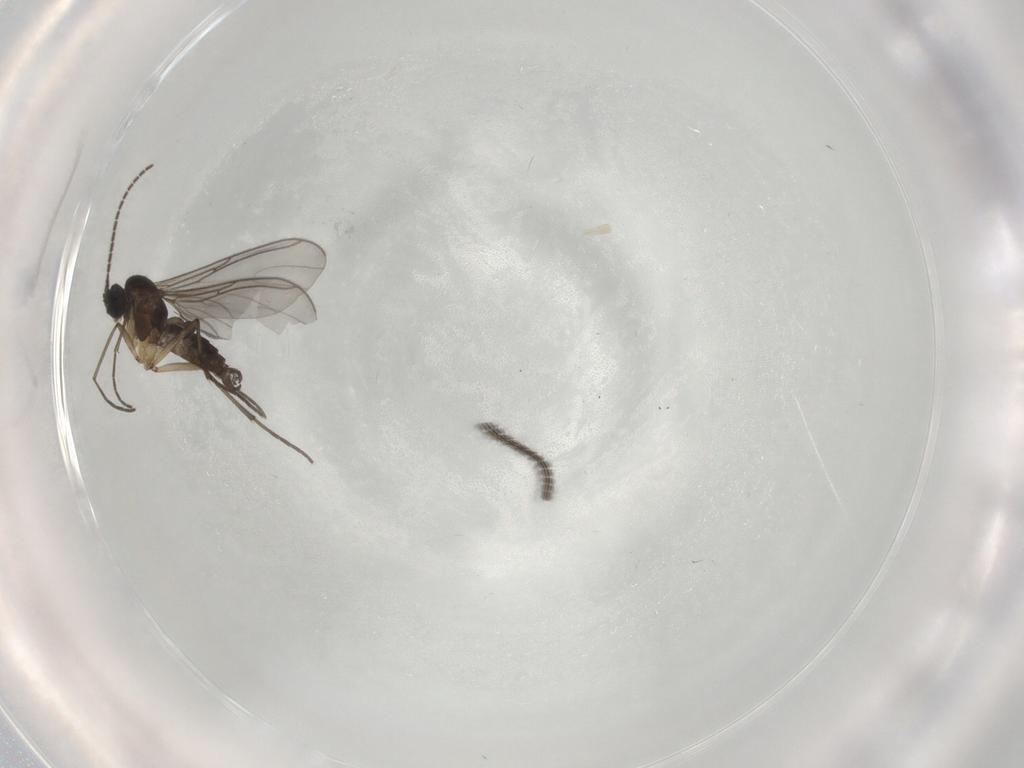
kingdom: Animalia
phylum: Arthropoda
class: Insecta
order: Diptera
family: Sciaridae
